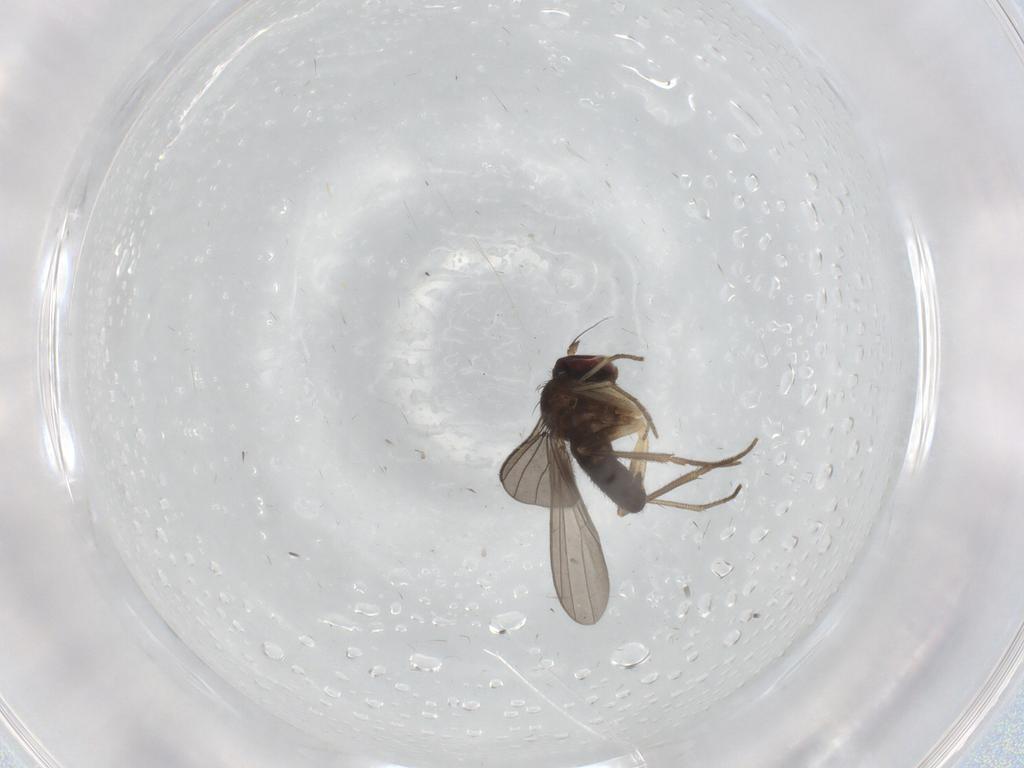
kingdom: Animalia
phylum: Arthropoda
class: Insecta
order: Diptera
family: Dolichopodidae
